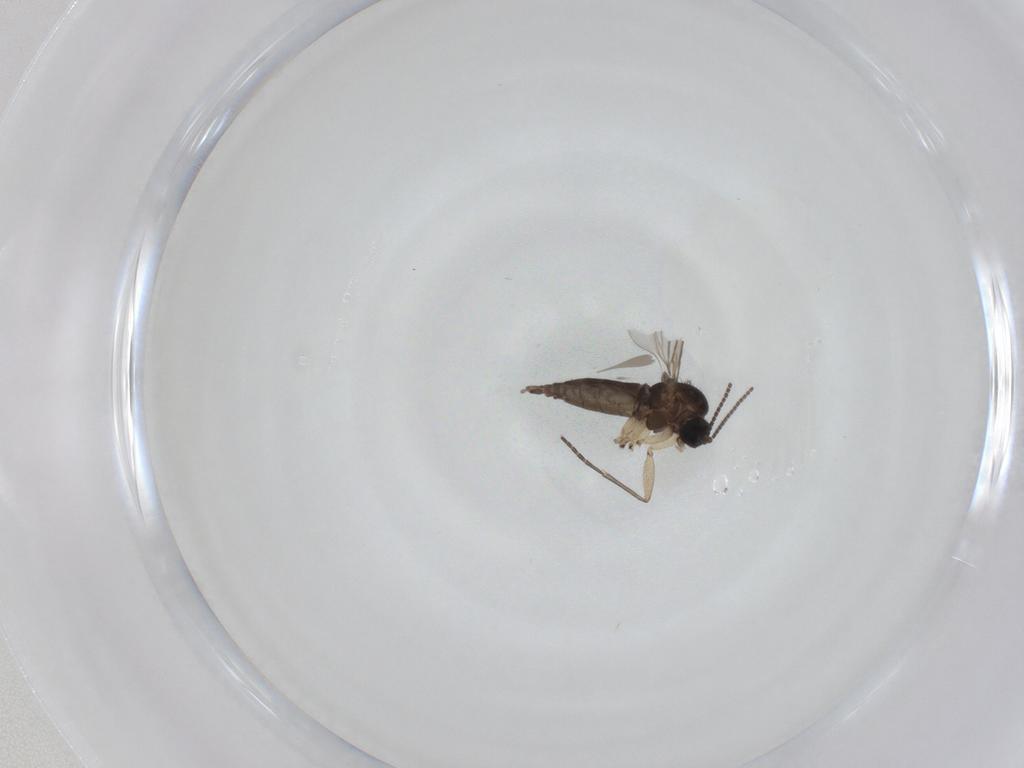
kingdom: Animalia
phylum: Arthropoda
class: Insecta
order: Diptera
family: Sciaridae
